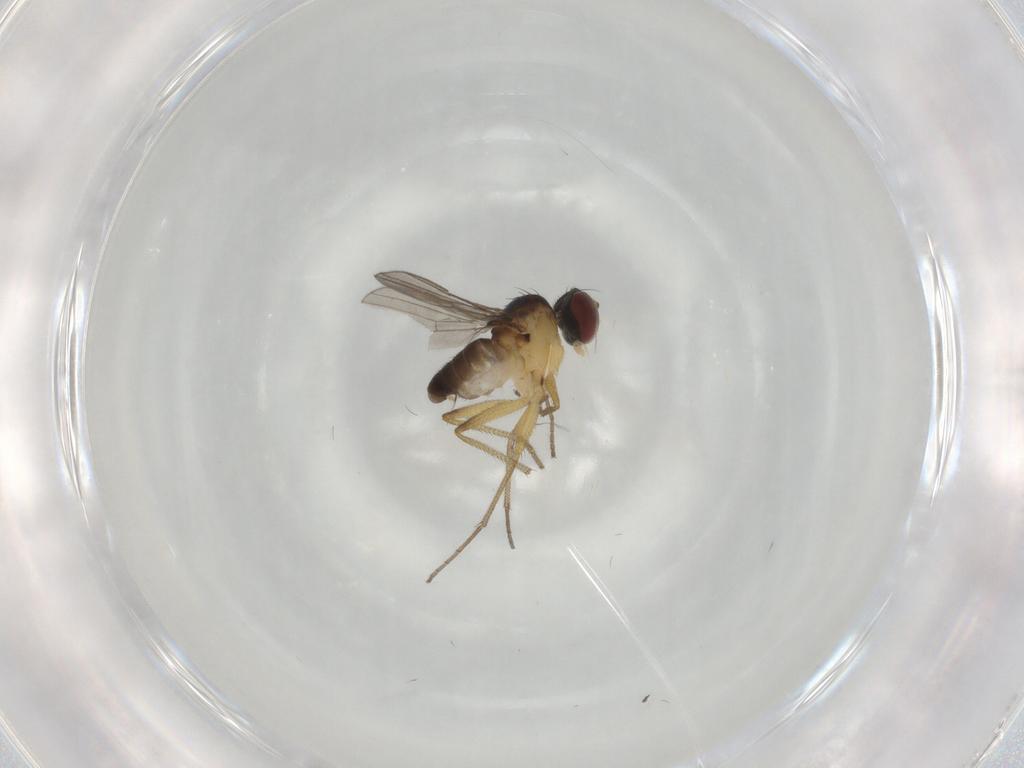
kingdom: Animalia
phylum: Arthropoda
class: Insecta
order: Diptera
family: Dolichopodidae
